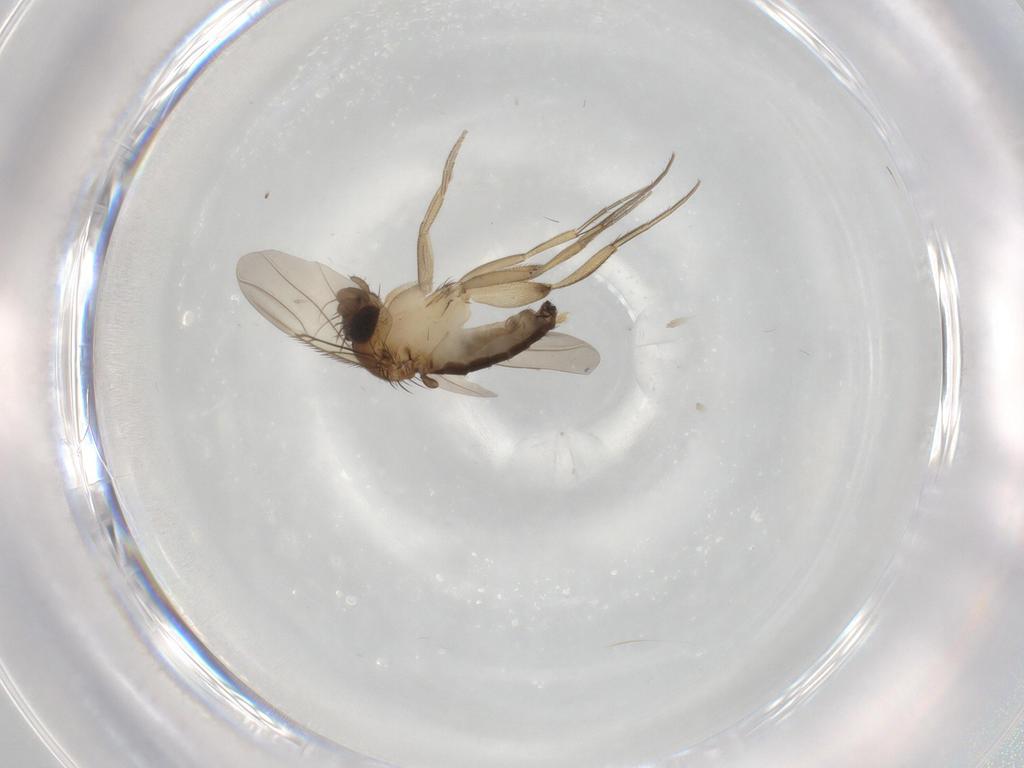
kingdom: Animalia
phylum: Arthropoda
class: Insecta
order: Diptera
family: Phoridae
